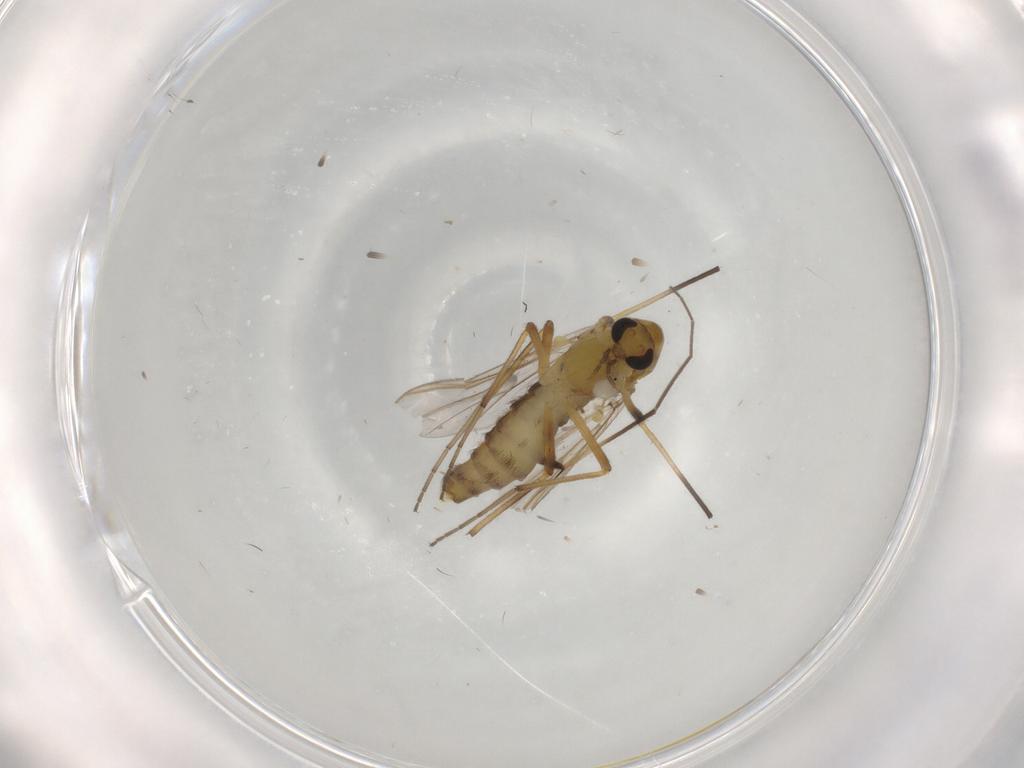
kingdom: Animalia
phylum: Arthropoda
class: Insecta
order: Diptera
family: Chironomidae
